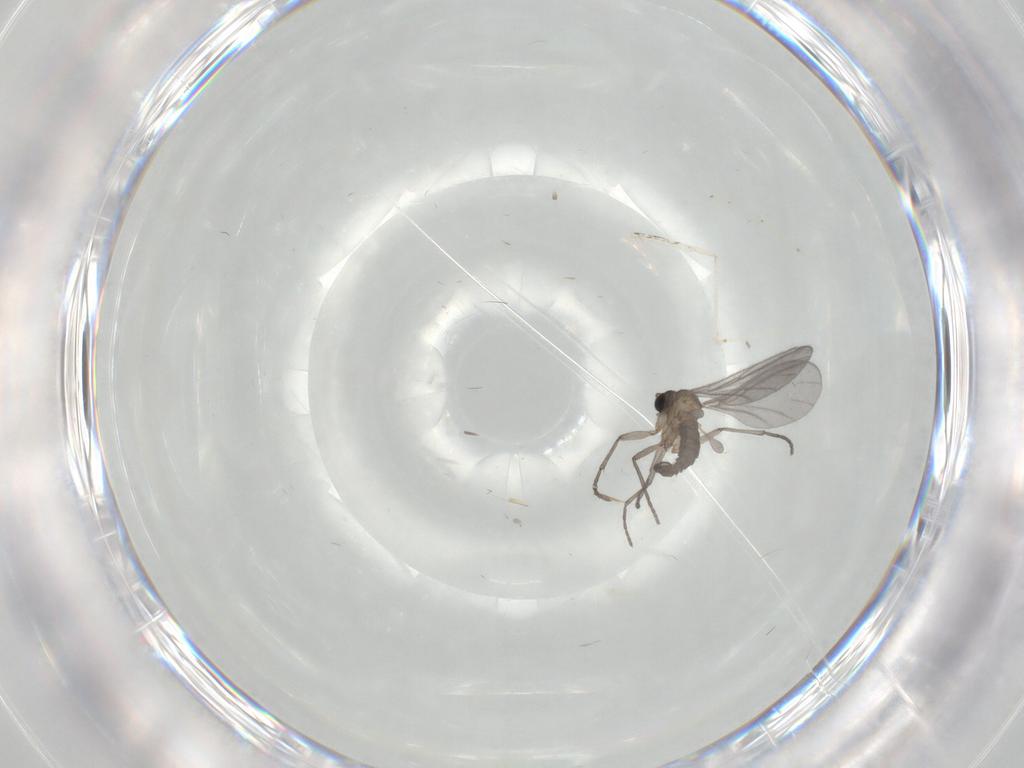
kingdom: Animalia
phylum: Arthropoda
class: Insecta
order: Diptera
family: Sciaridae
